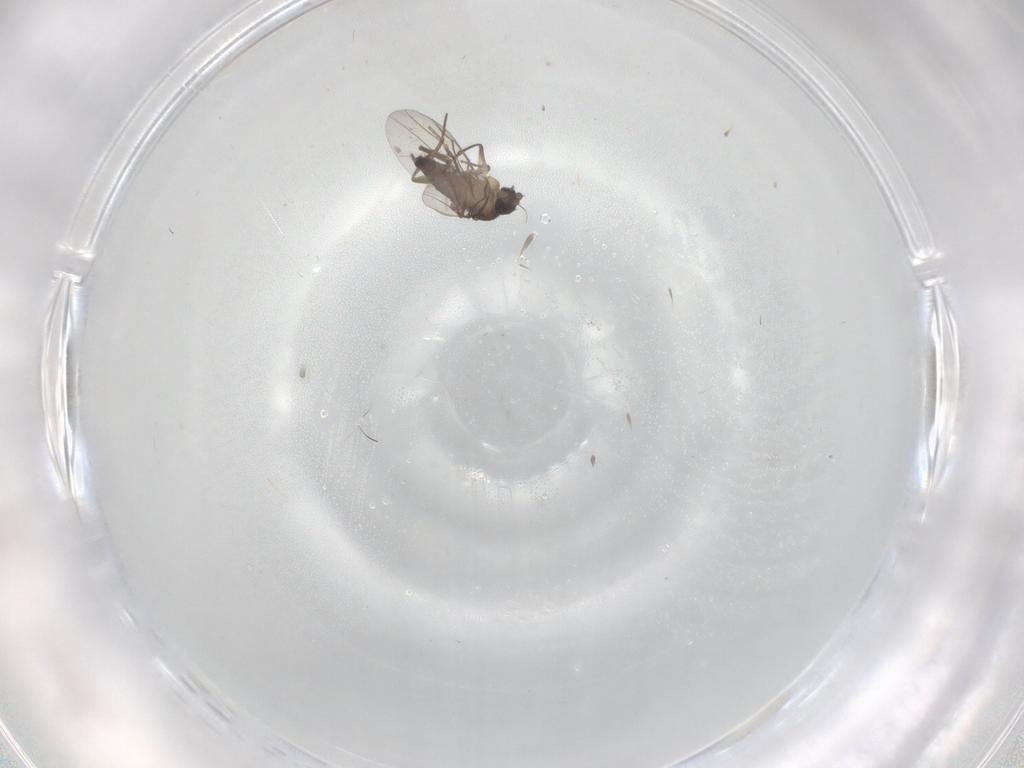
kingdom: Animalia
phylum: Arthropoda
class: Insecta
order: Diptera
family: Phoridae
